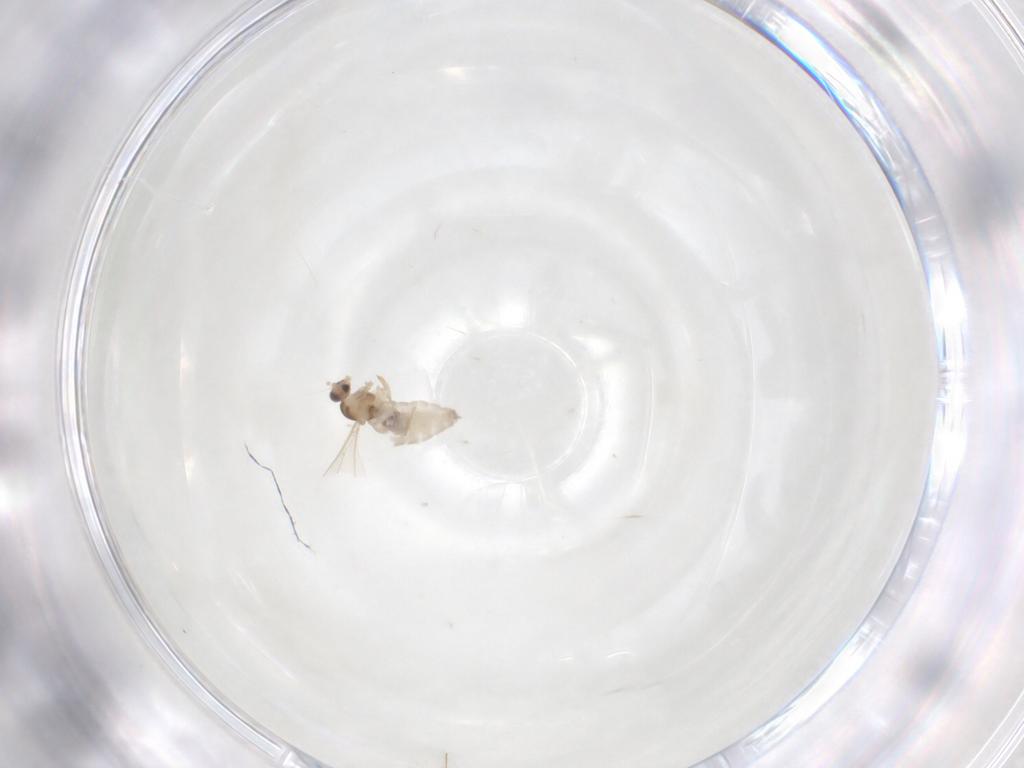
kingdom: Animalia
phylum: Arthropoda
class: Insecta
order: Diptera
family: Cecidomyiidae
